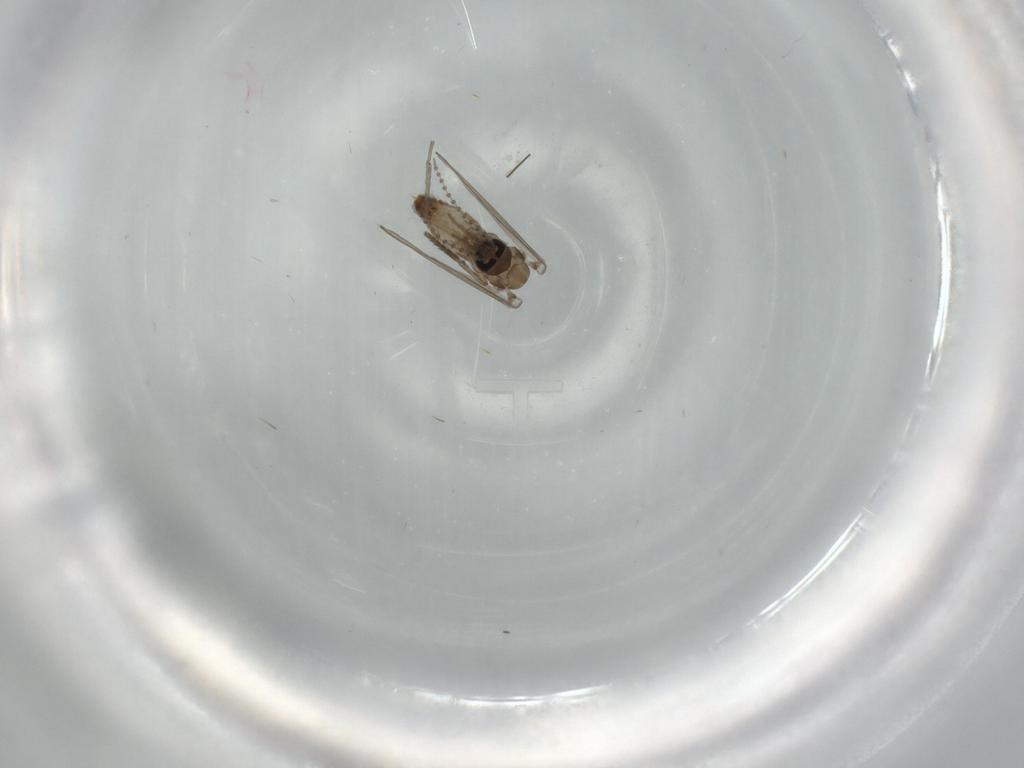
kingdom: Animalia
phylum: Arthropoda
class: Insecta
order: Diptera
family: Psychodidae
